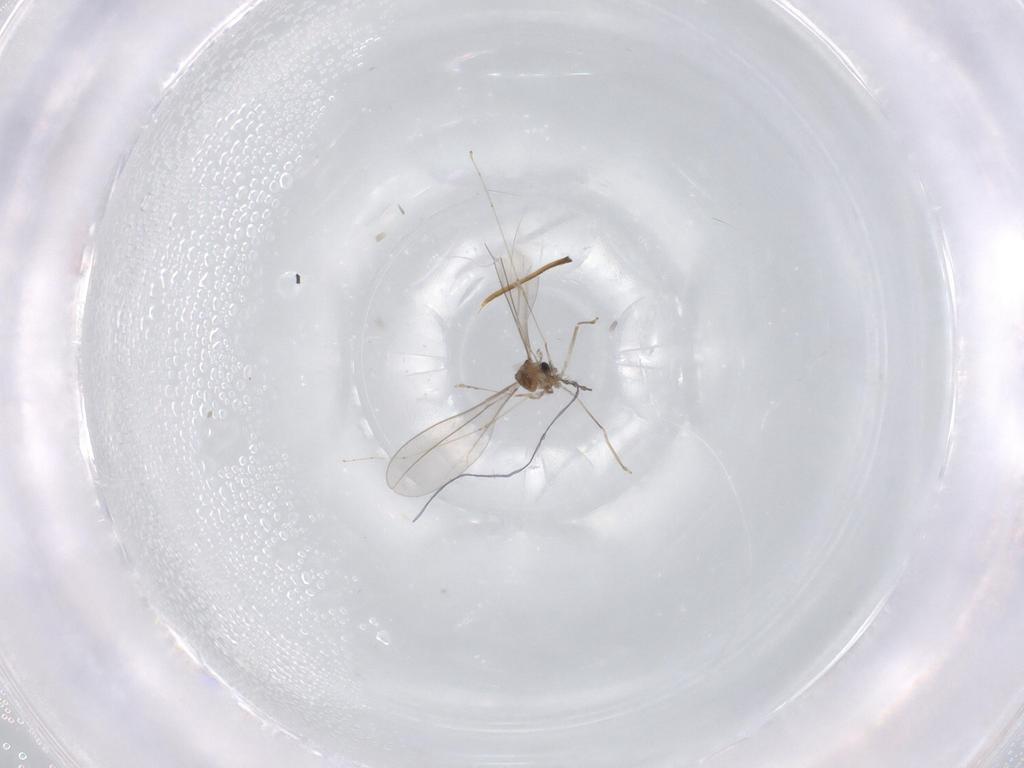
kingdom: Animalia
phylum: Arthropoda
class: Insecta
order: Diptera
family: Cecidomyiidae
